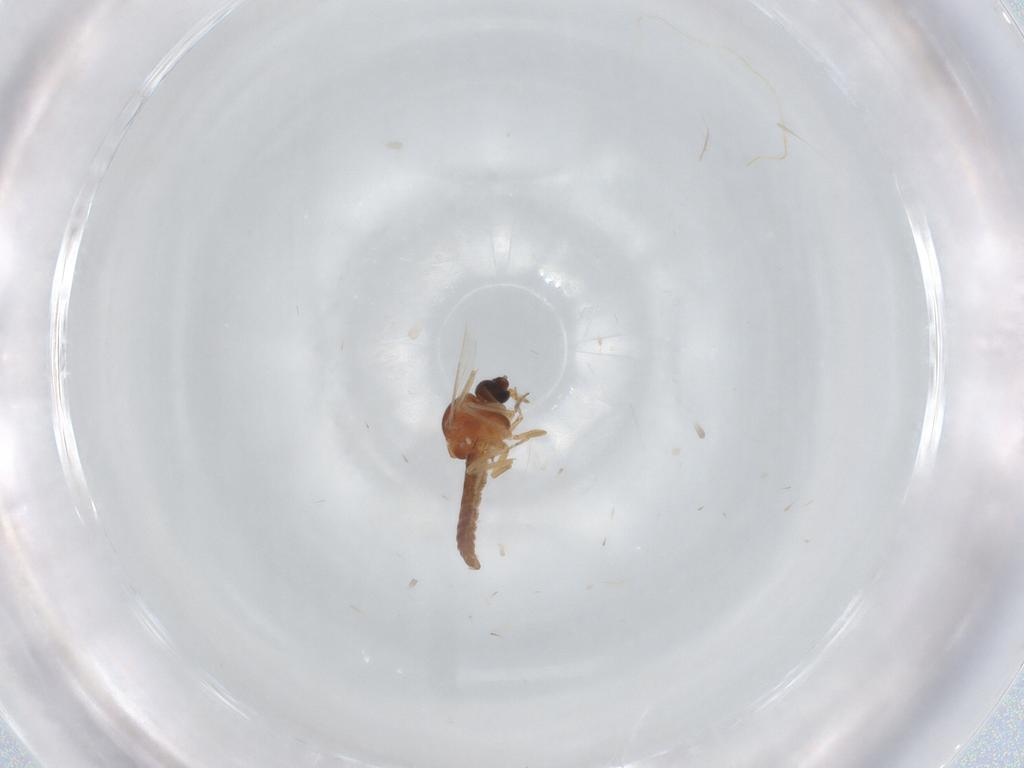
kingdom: Animalia
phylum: Arthropoda
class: Insecta
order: Diptera
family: Ceratopogonidae
